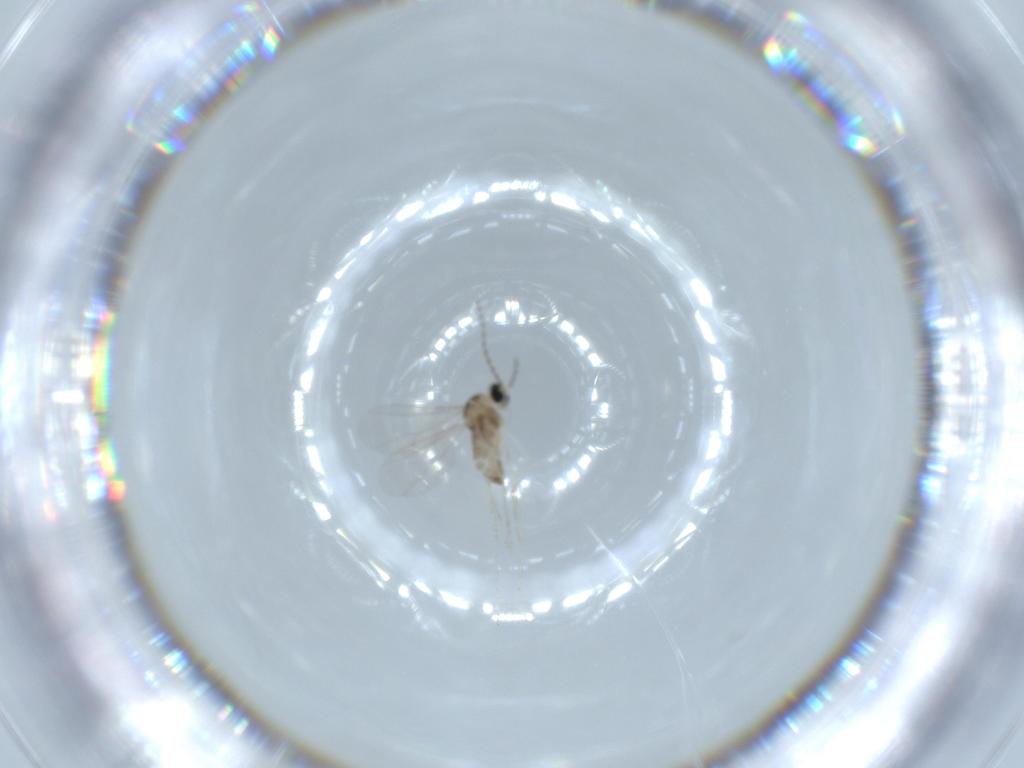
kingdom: Animalia
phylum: Arthropoda
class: Insecta
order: Diptera
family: Cecidomyiidae
